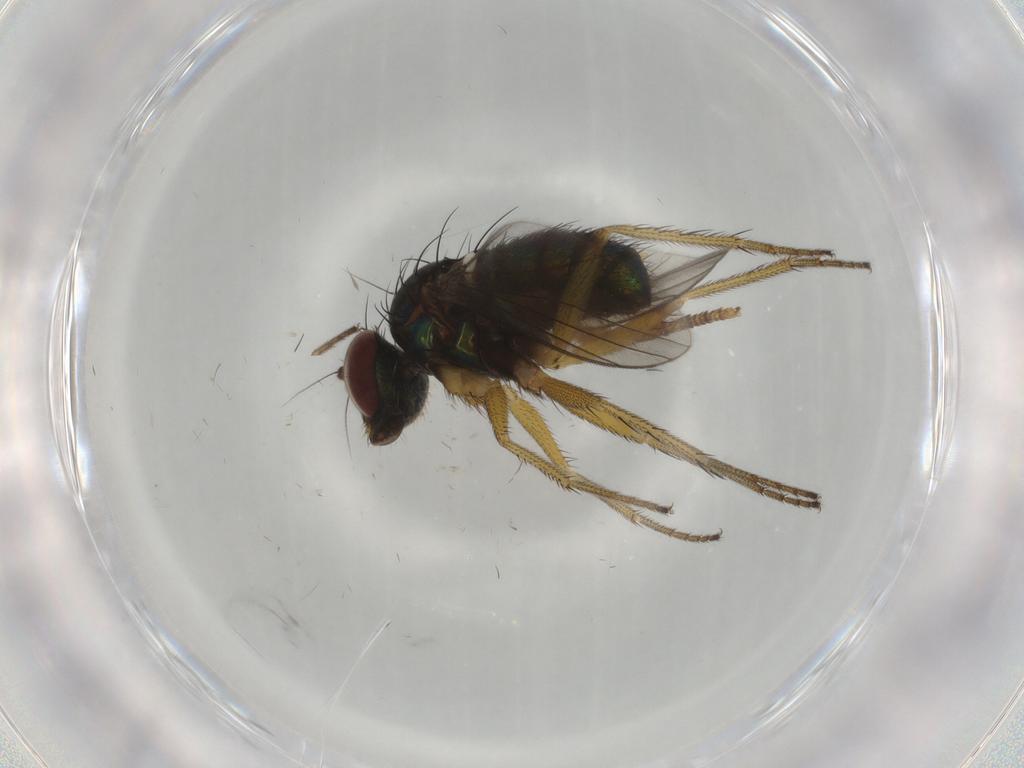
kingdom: Animalia
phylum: Arthropoda
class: Insecta
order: Diptera
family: Dolichopodidae
